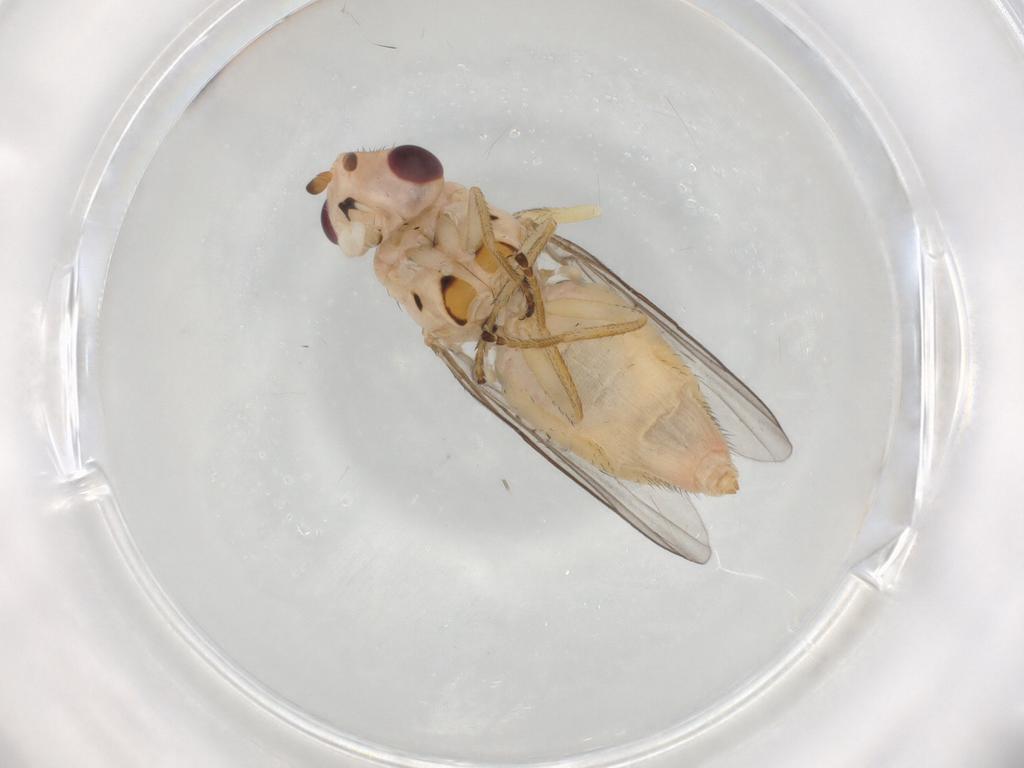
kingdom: Animalia
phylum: Arthropoda
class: Insecta
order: Diptera
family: Chloropidae
